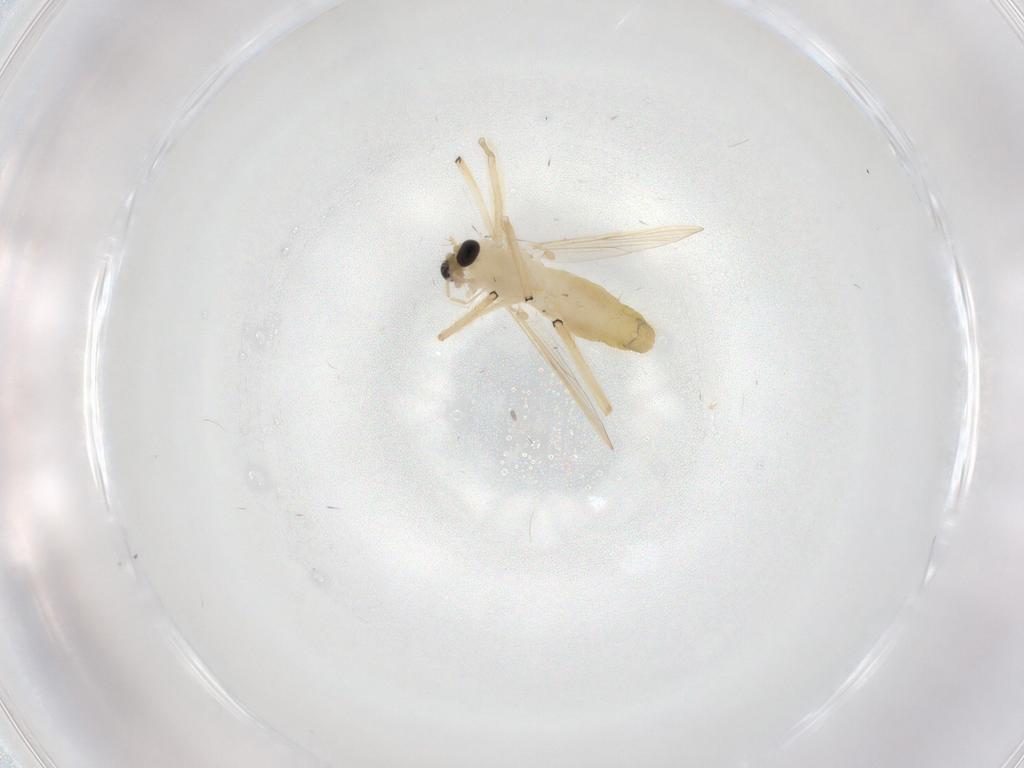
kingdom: Animalia
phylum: Arthropoda
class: Insecta
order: Diptera
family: Chironomidae
